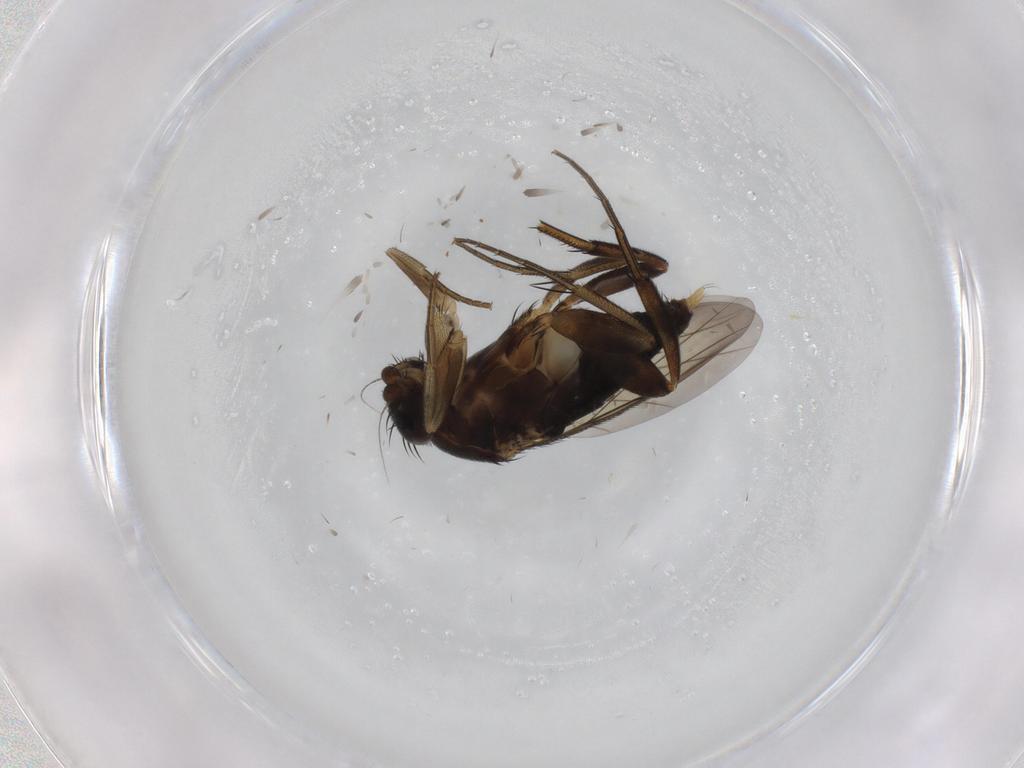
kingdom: Animalia
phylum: Arthropoda
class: Insecta
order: Diptera
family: Phoridae
